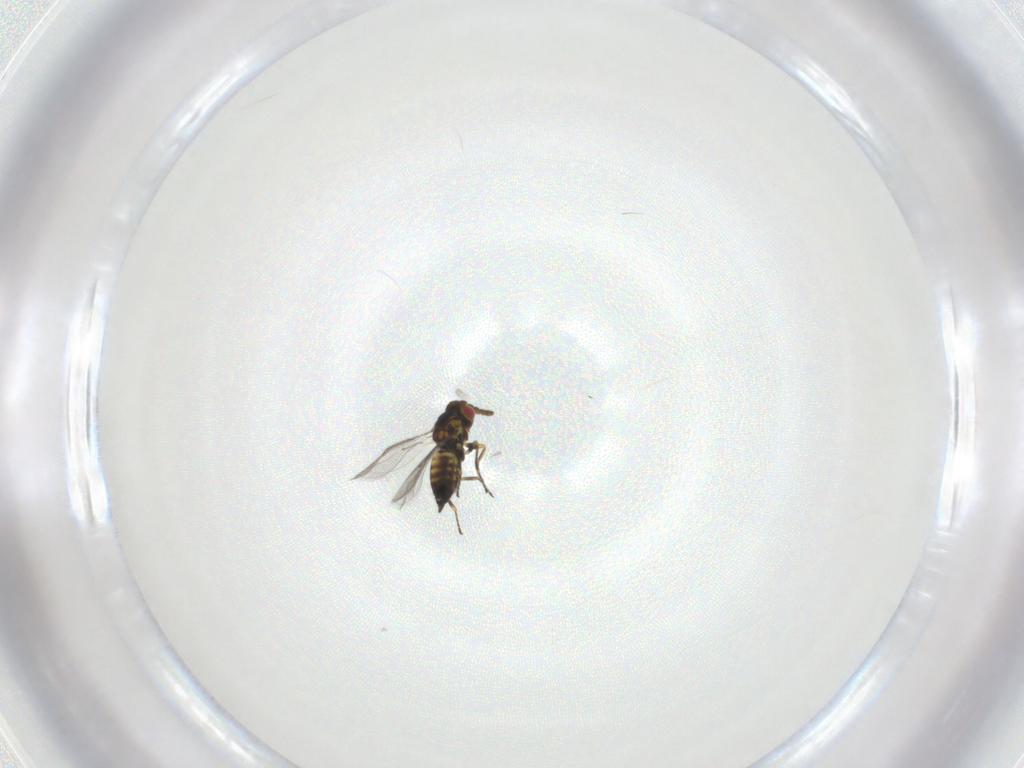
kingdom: Animalia
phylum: Arthropoda
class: Insecta
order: Hymenoptera
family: Eulophidae
